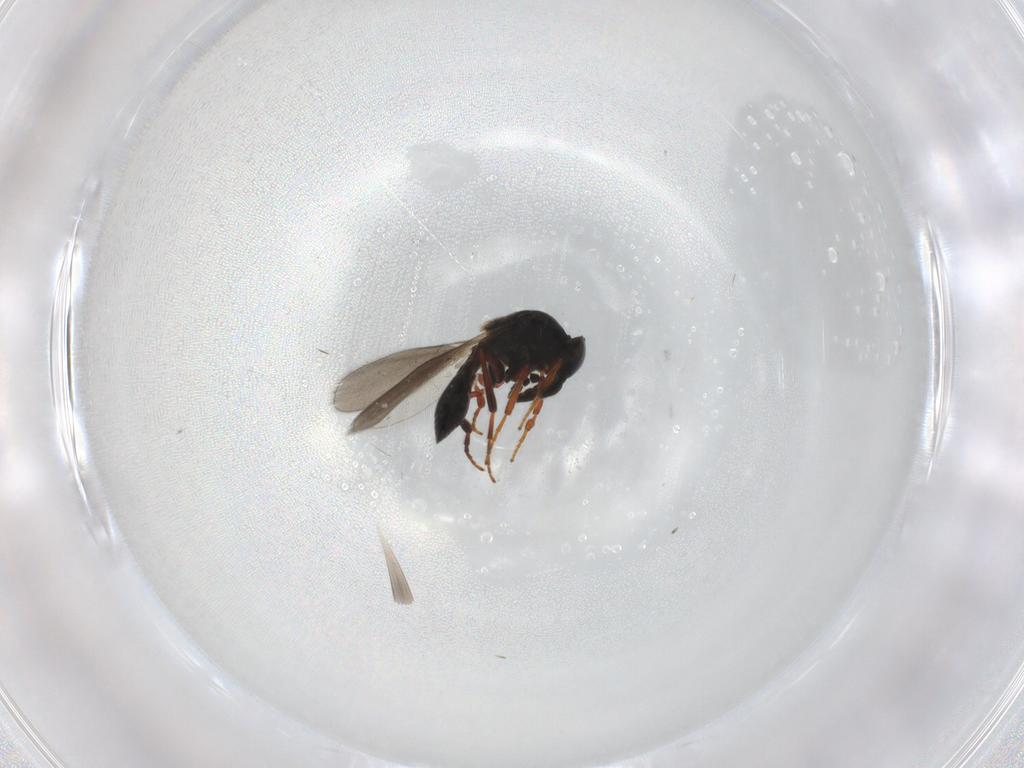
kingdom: Animalia
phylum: Arthropoda
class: Insecta
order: Hymenoptera
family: Platygastridae
